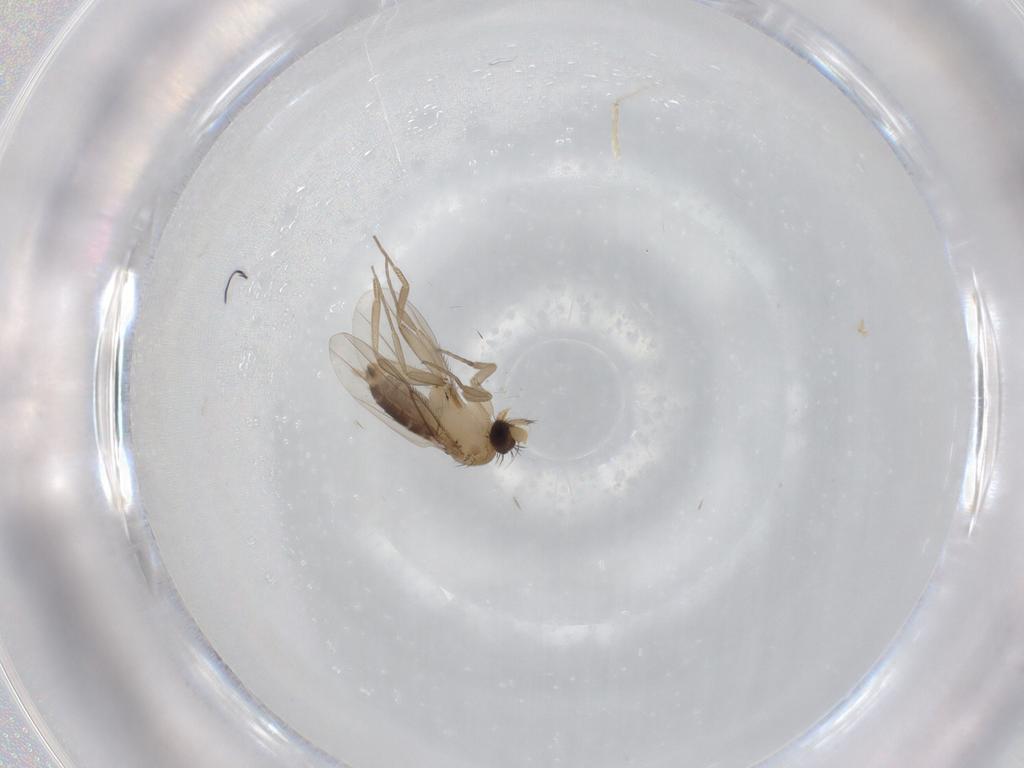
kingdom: Animalia
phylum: Arthropoda
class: Insecta
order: Diptera
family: Phoridae
